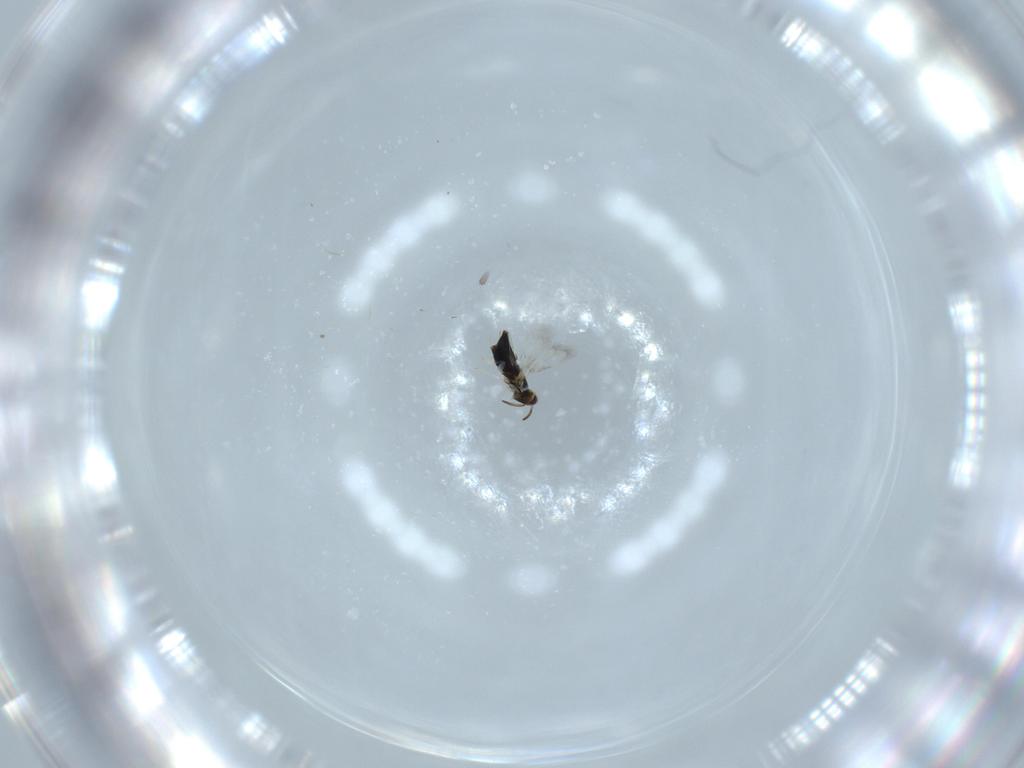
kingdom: Animalia
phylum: Arthropoda
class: Insecta
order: Hymenoptera
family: Signiphoridae
